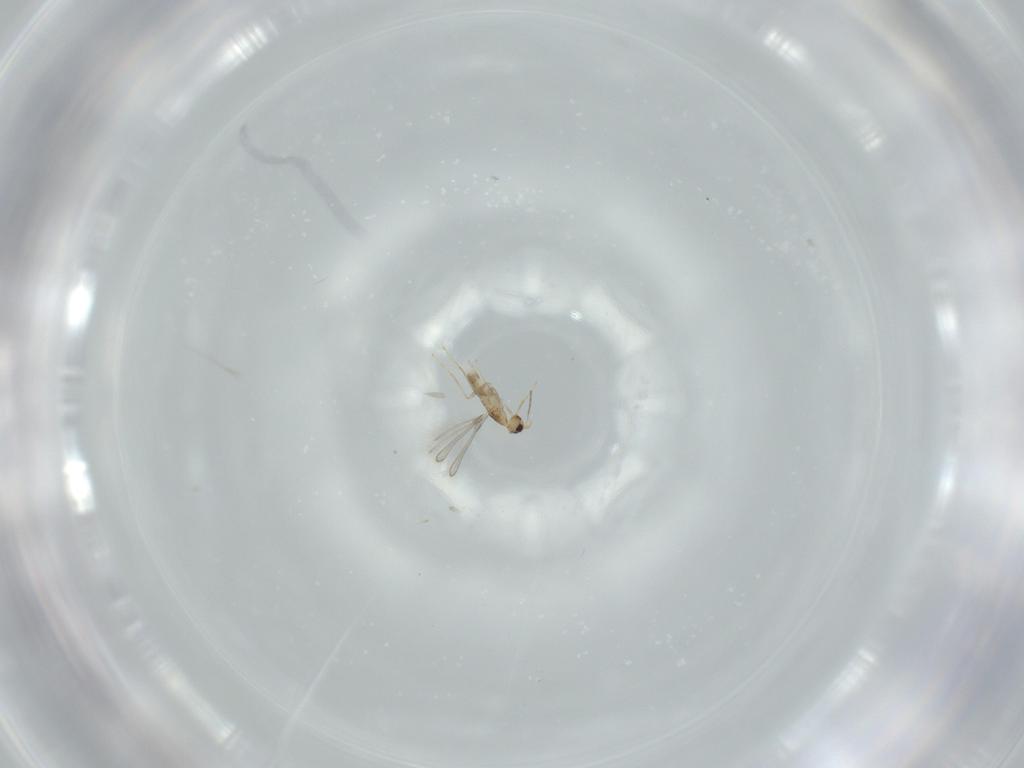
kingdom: Animalia
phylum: Arthropoda
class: Insecta
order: Hymenoptera
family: Mymaridae
